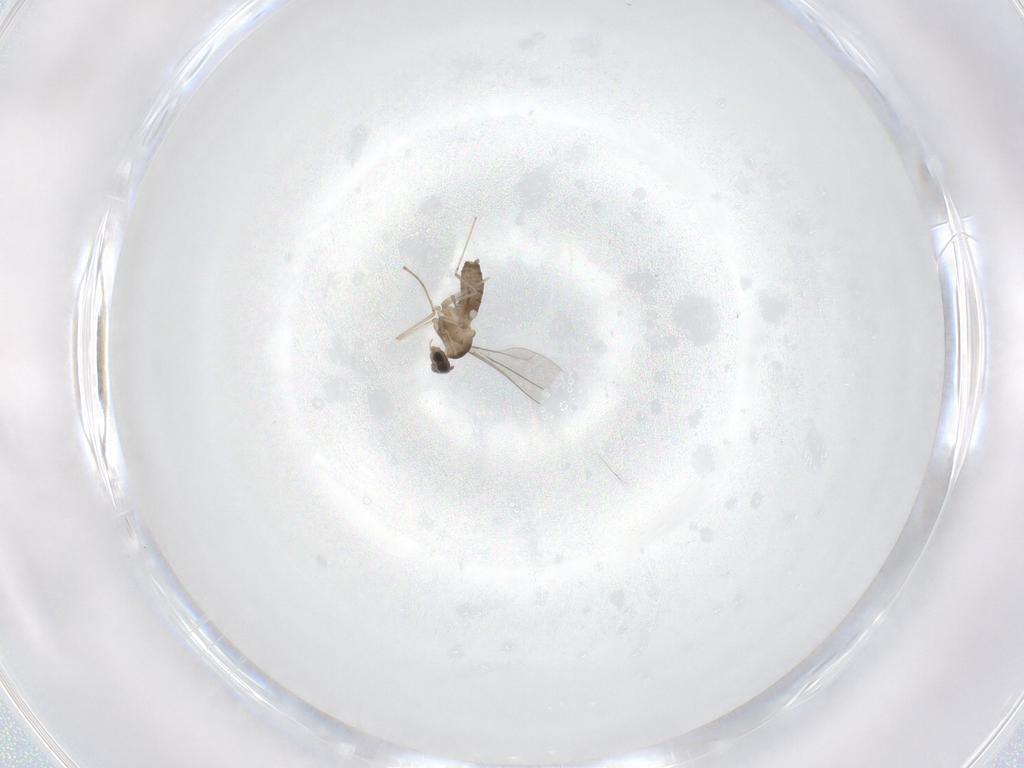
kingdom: Animalia
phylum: Arthropoda
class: Insecta
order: Diptera
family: Cecidomyiidae
